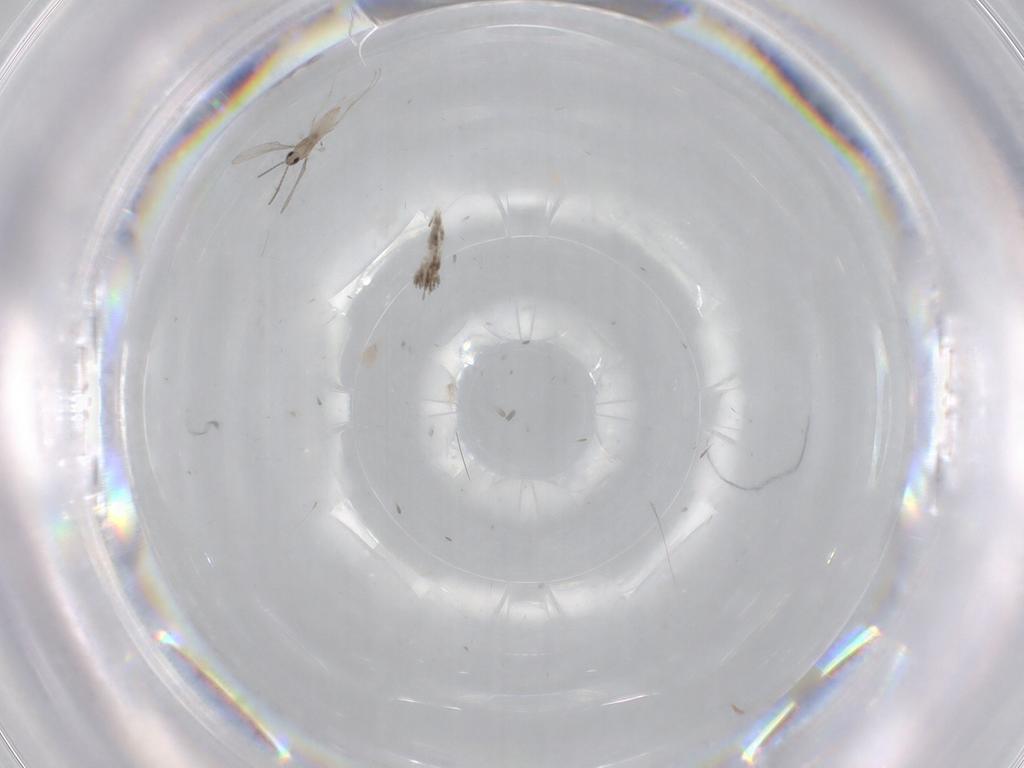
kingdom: Animalia
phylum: Arthropoda
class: Insecta
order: Diptera
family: Cecidomyiidae
